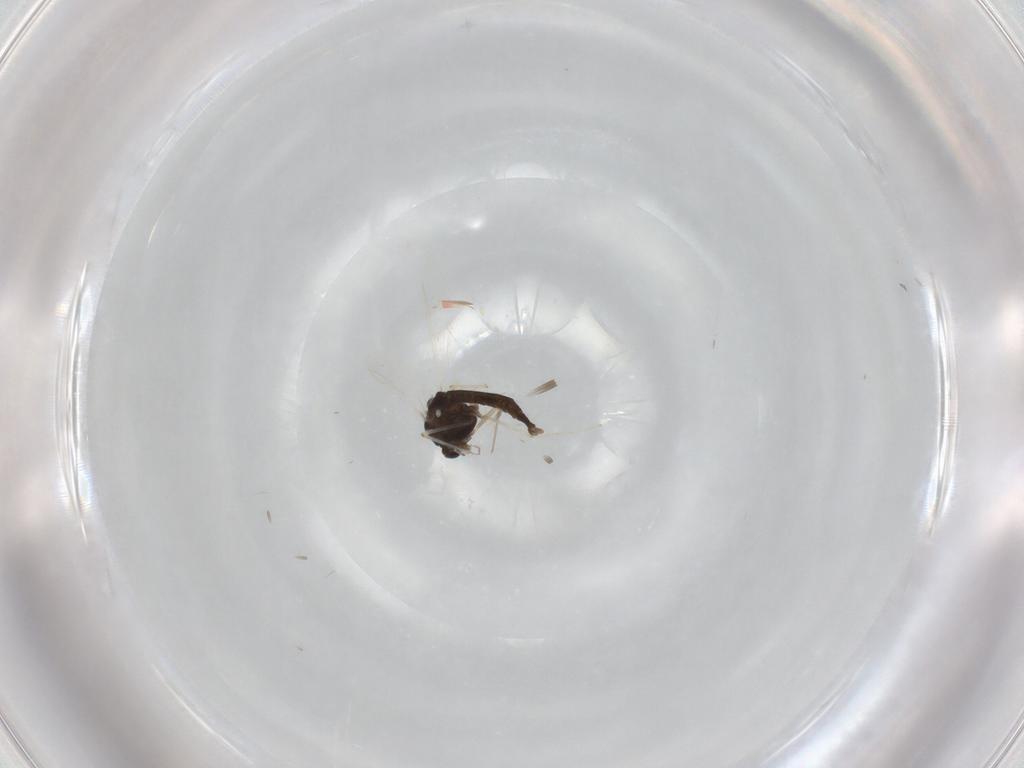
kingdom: Animalia
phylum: Arthropoda
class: Insecta
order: Diptera
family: Chironomidae
